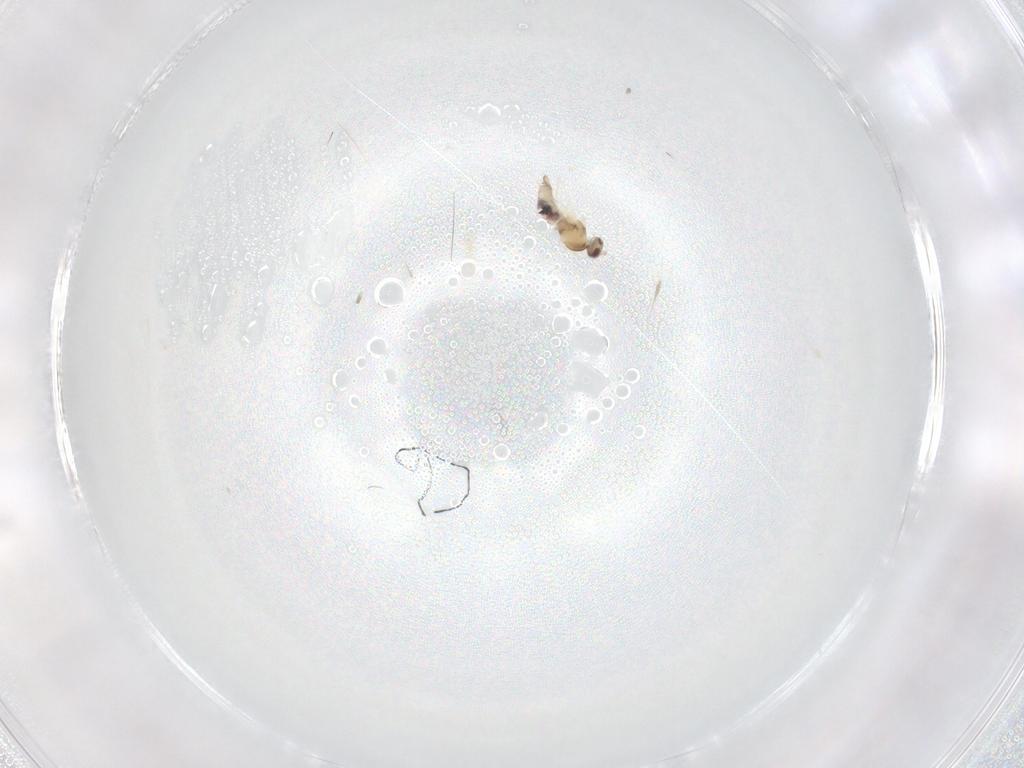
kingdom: Animalia
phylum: Arthropoda
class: Insecta
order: Diptera
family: Cecidomyiidae
